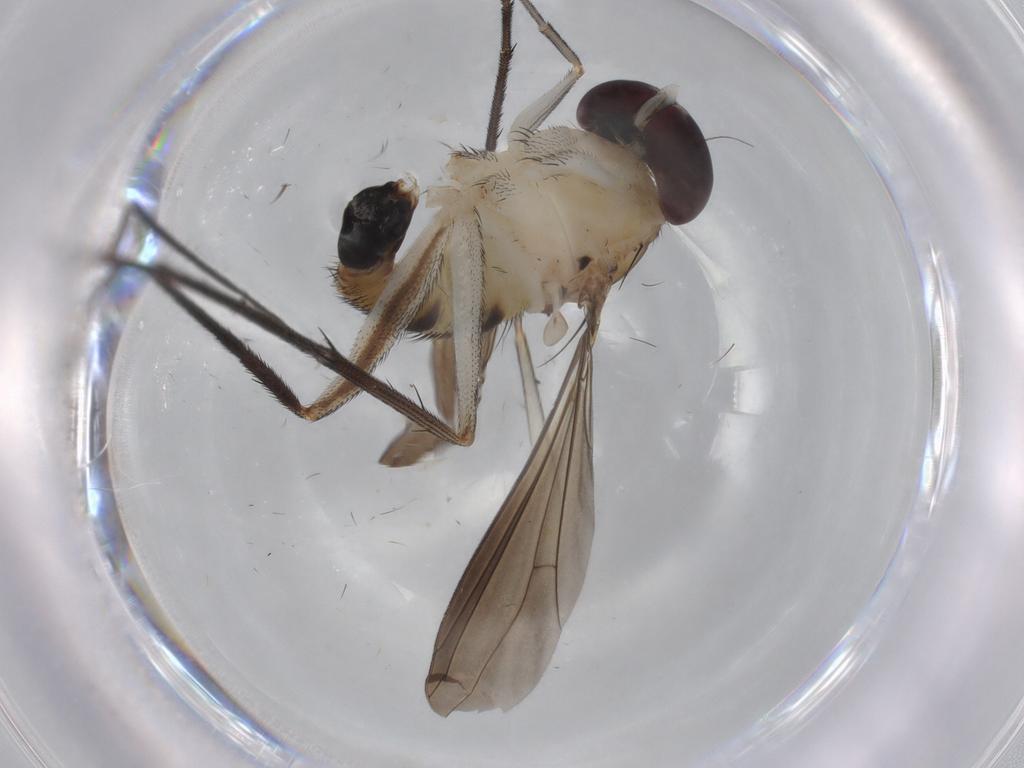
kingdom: Animalia
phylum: Arthropoda
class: Insecta
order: Diptera
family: Dolichopodidae
